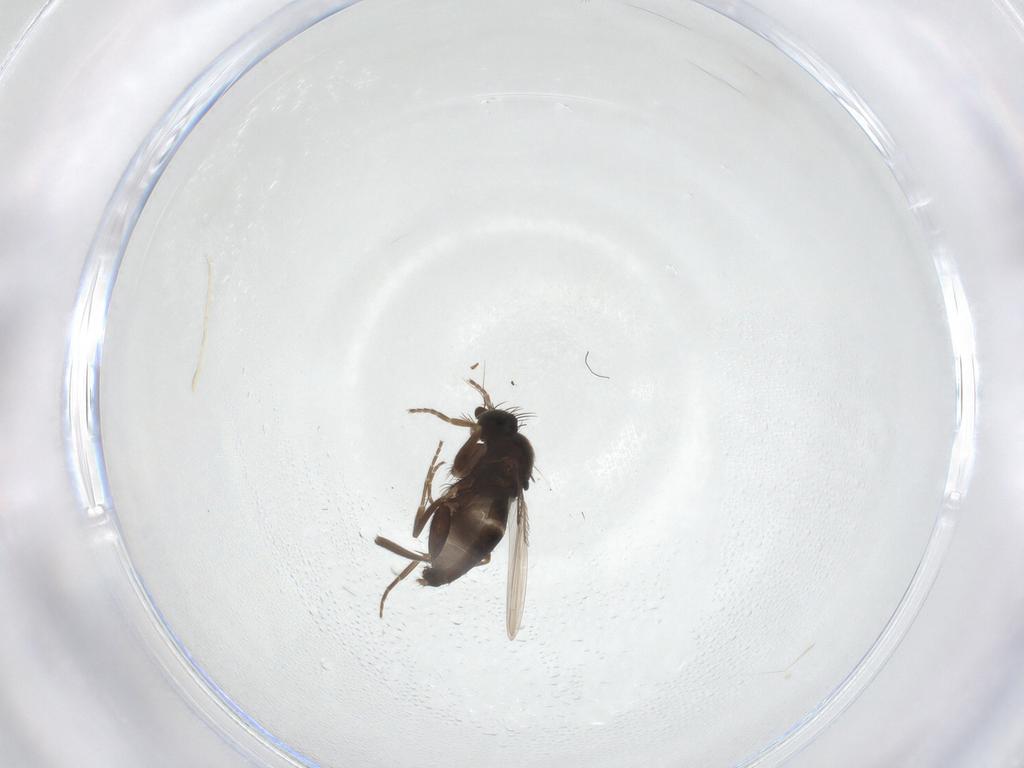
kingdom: Animalia
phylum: Arthropoda
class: Insecta
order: Diptera
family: Phoridae
